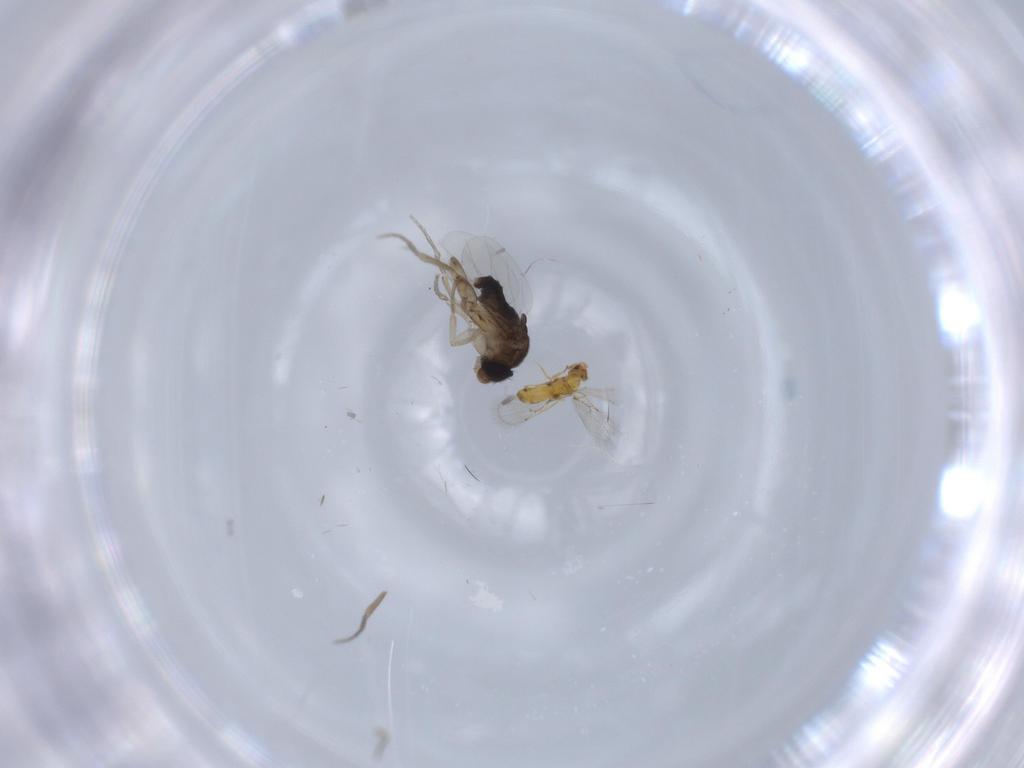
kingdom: Animalia
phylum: Arthropoda
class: Insecta
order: Diptera
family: Phoridae
